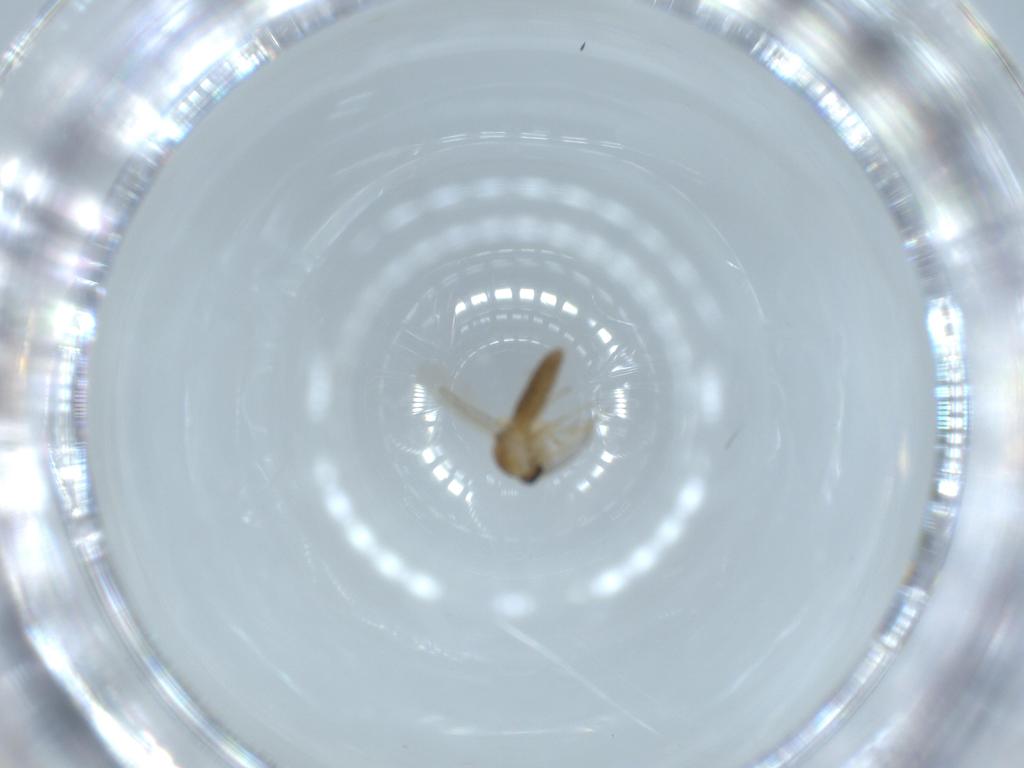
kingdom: Animalia
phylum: Arthropoda
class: Insecta
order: Diptera
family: Ceratopogonidae
